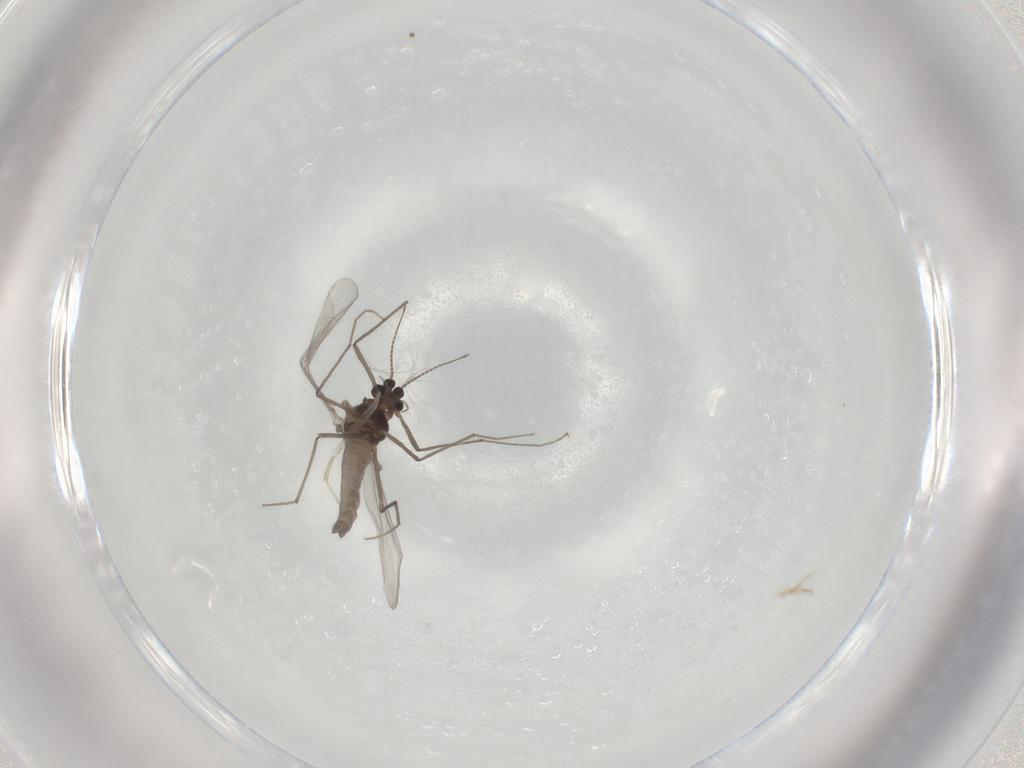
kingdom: Animalia
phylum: Arthropoda
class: Insecta
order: Diptera
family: Chironomidae
